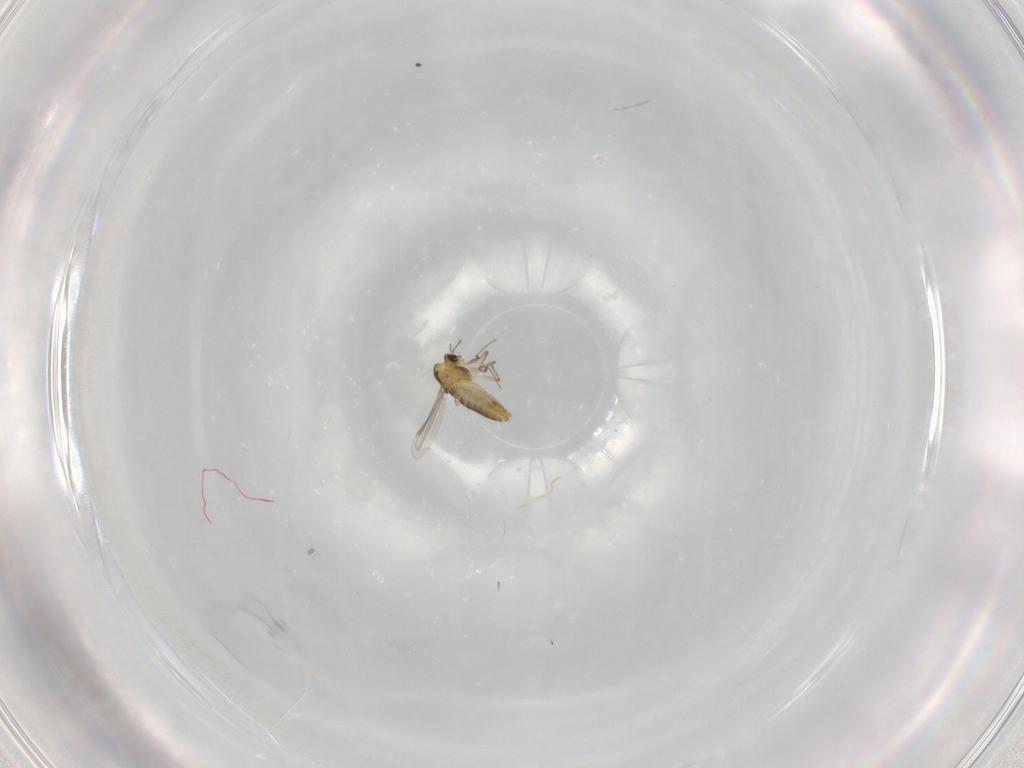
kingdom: Animalia
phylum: Arthropoda
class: Insecta
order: Diptera
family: Chironomidae
